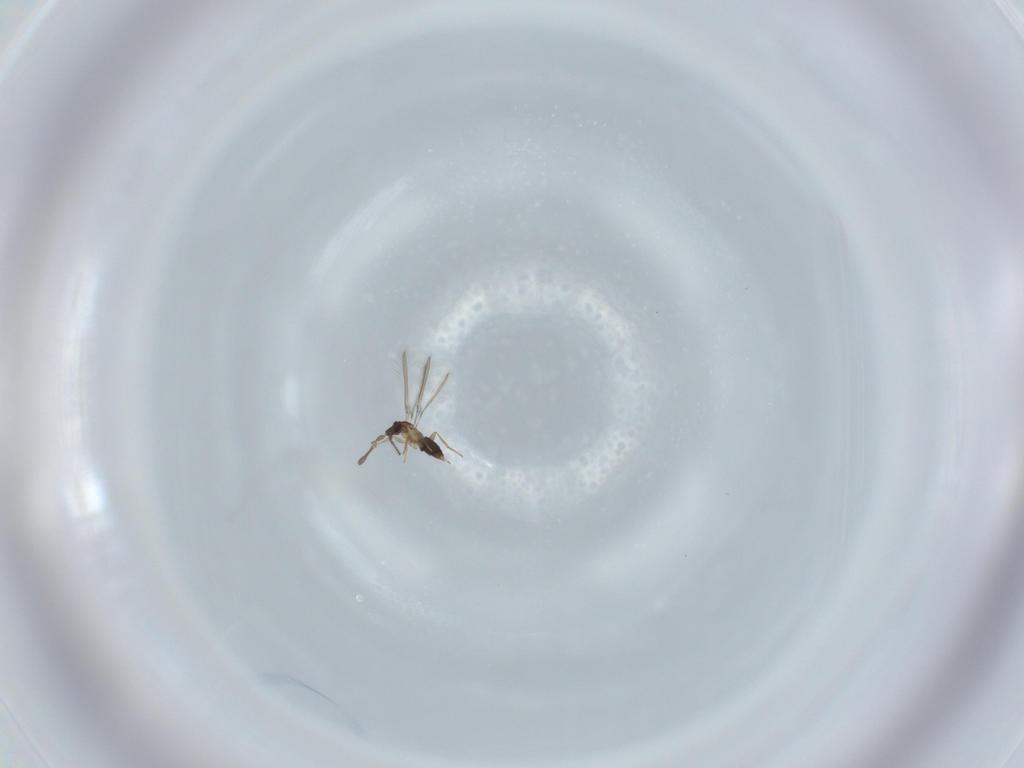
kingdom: Animalia
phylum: Arthropoda
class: Insecta
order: Hymenoptera
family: Mymaridae
